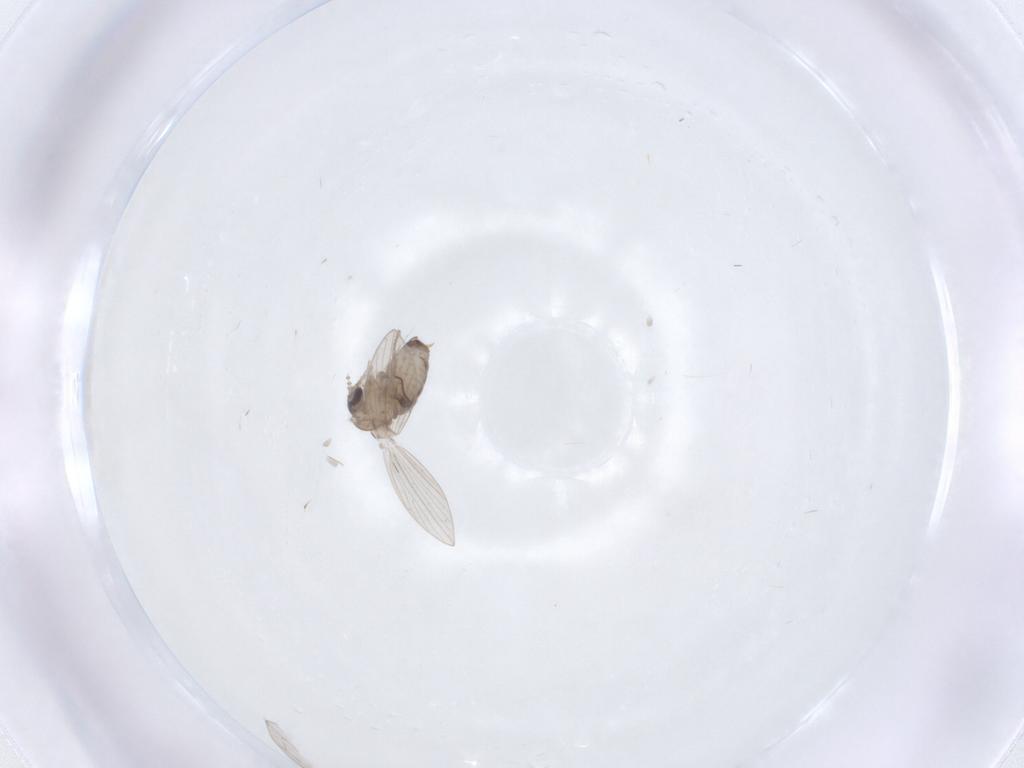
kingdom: Animalia
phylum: Arthropoda
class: Insecta
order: Diptera
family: Psychodidae
